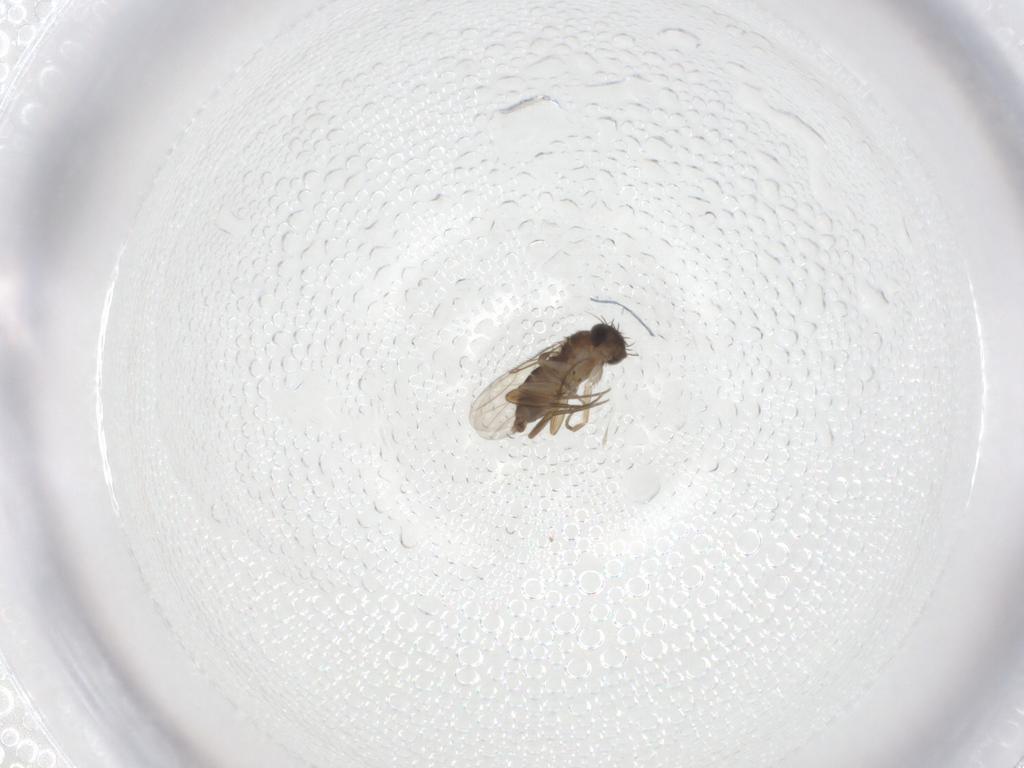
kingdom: Animalia
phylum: Arthropoda
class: Insecta
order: Diptera
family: Phoridae
